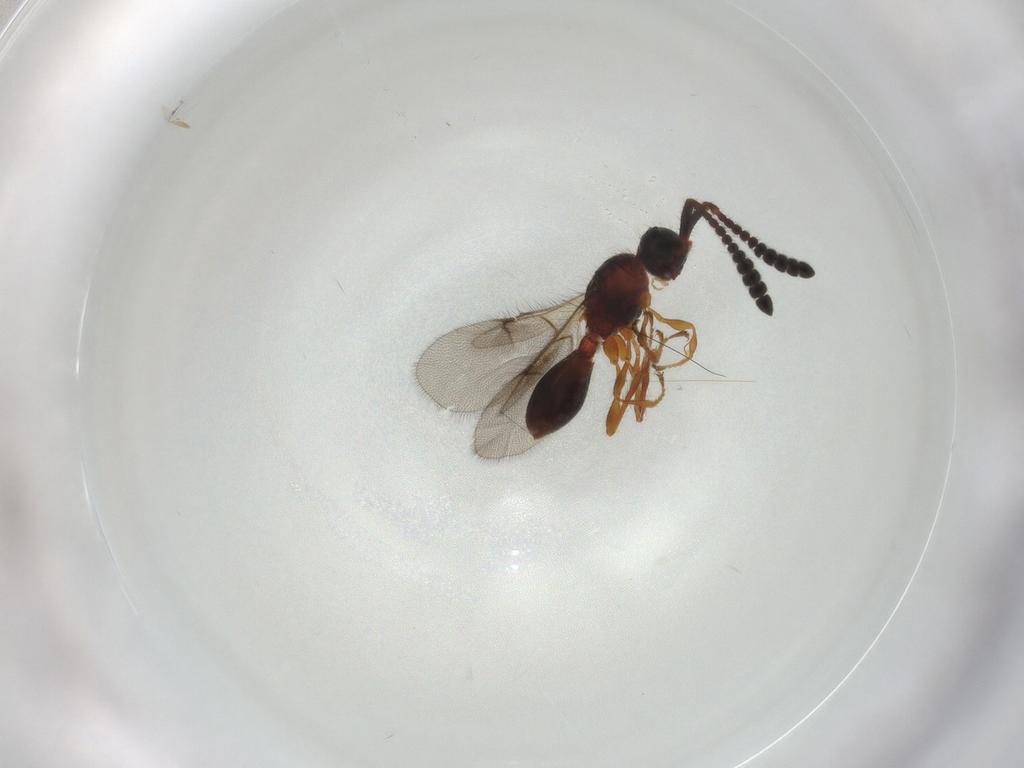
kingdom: Animalia
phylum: Arthropoda
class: Insecta
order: Hymenoptera
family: Diapriidae
